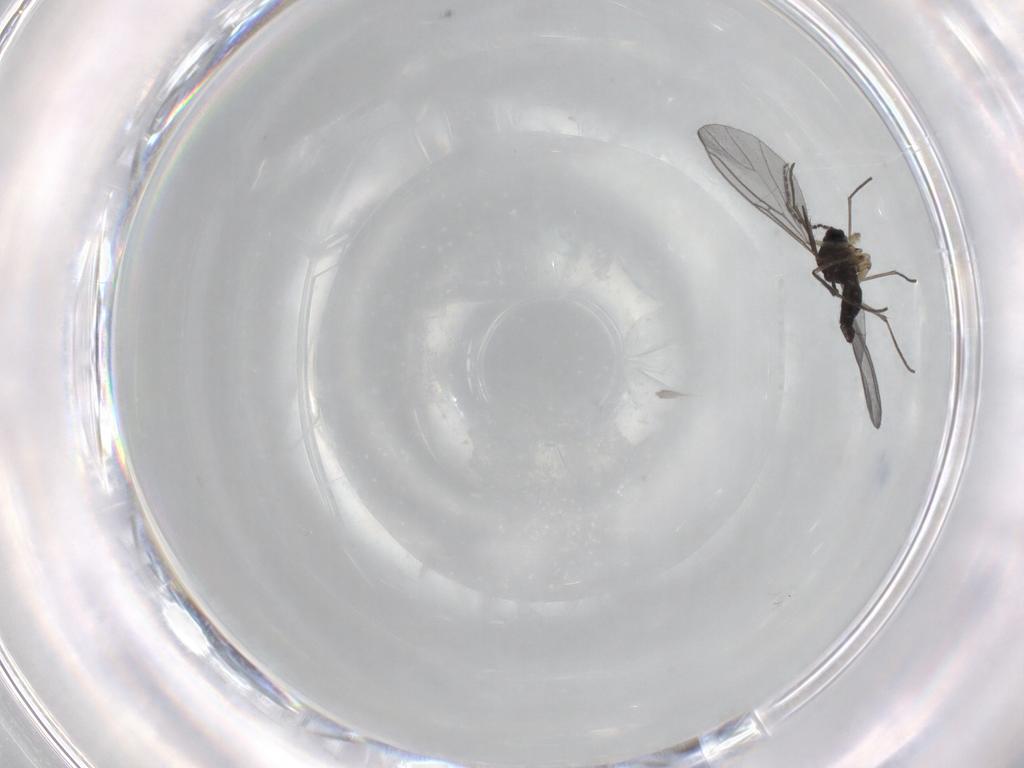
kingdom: Animalia
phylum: Arthropoda
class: Insecta
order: Diptera
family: Sciaridae
